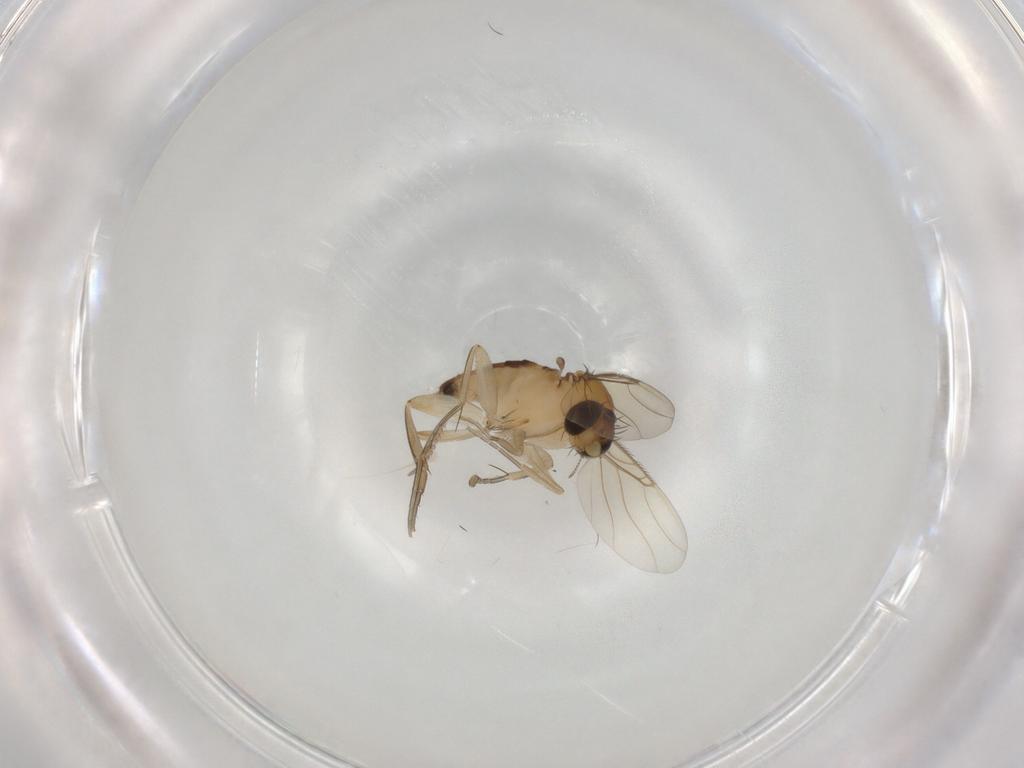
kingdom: Animalia
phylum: Arthropoda
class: Insecta
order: Diptera
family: Phoridae
